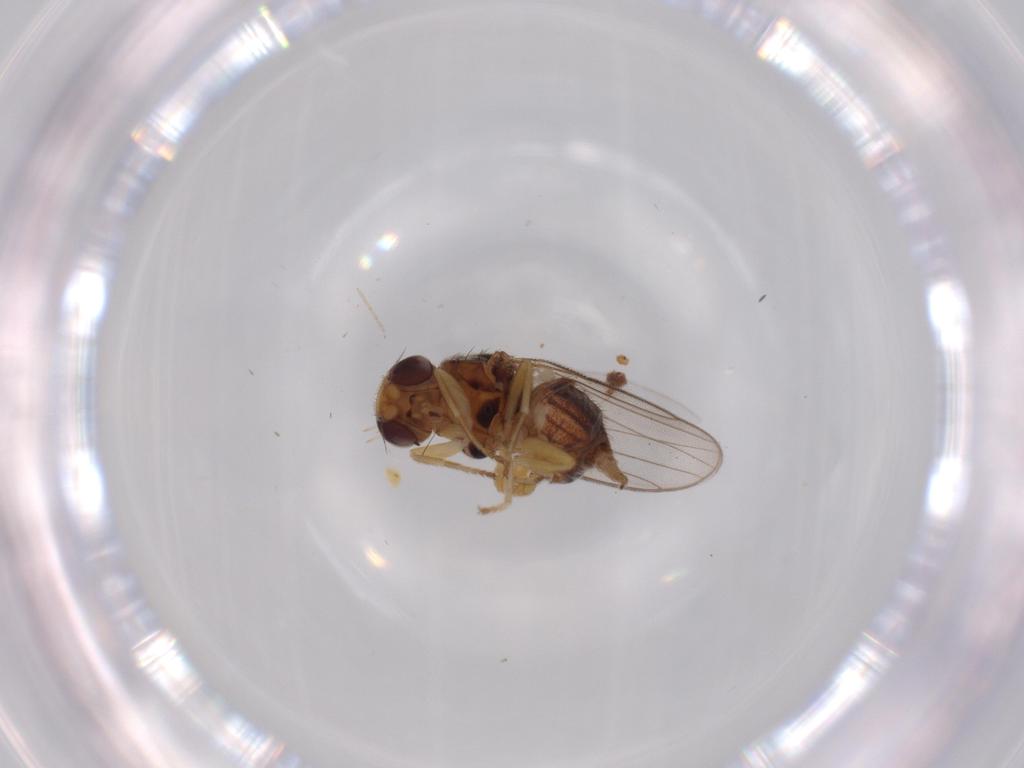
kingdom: Animalia
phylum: Arthropoda
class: Insecta
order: Diptera
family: Chloropidae
